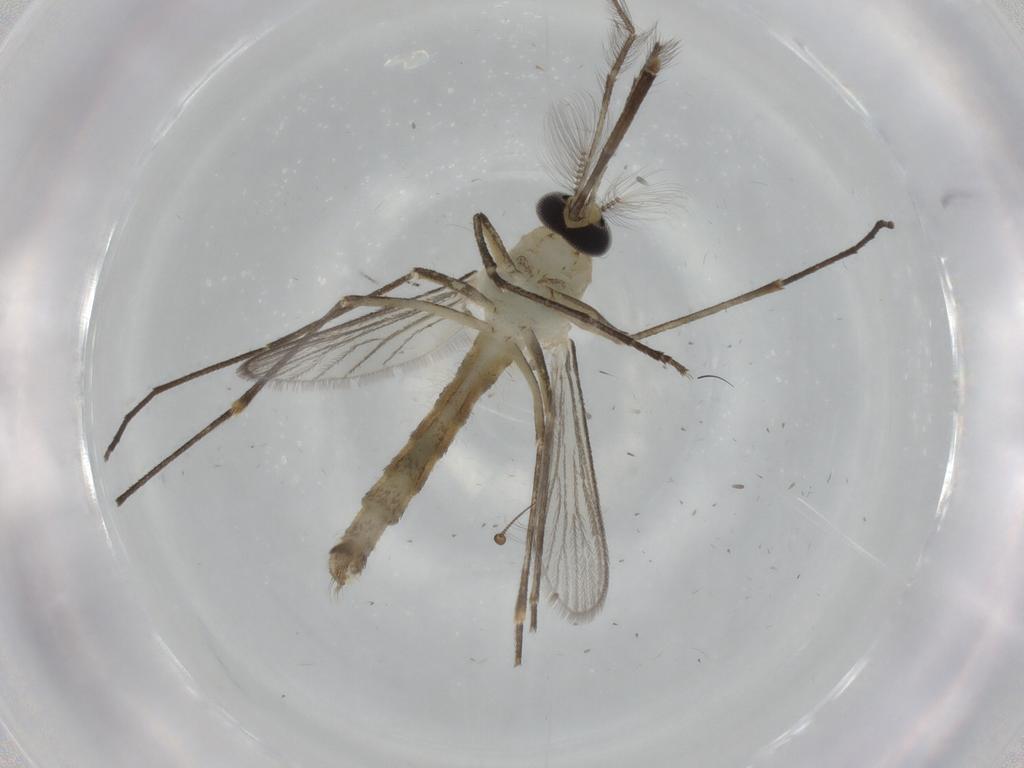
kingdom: Animalia
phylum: Arthropoda
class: Insecta
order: Diptera
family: Chironomidae
